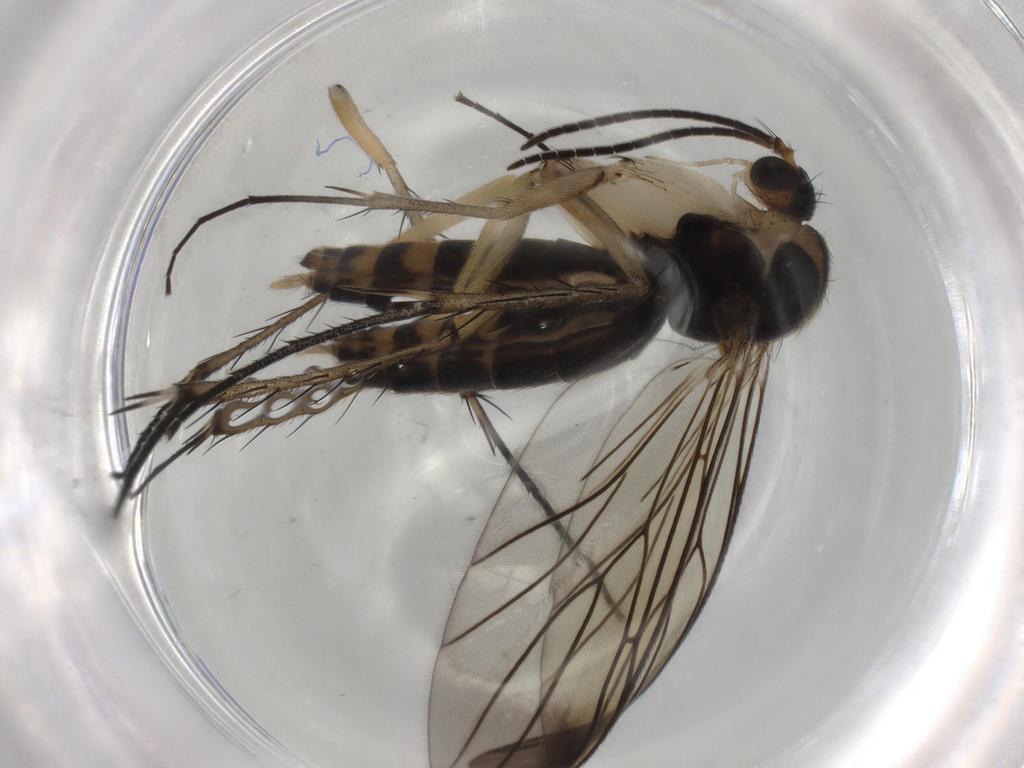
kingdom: Animalia
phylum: Arthropoda
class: Insecta
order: Diptera
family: Mycetophilidae
